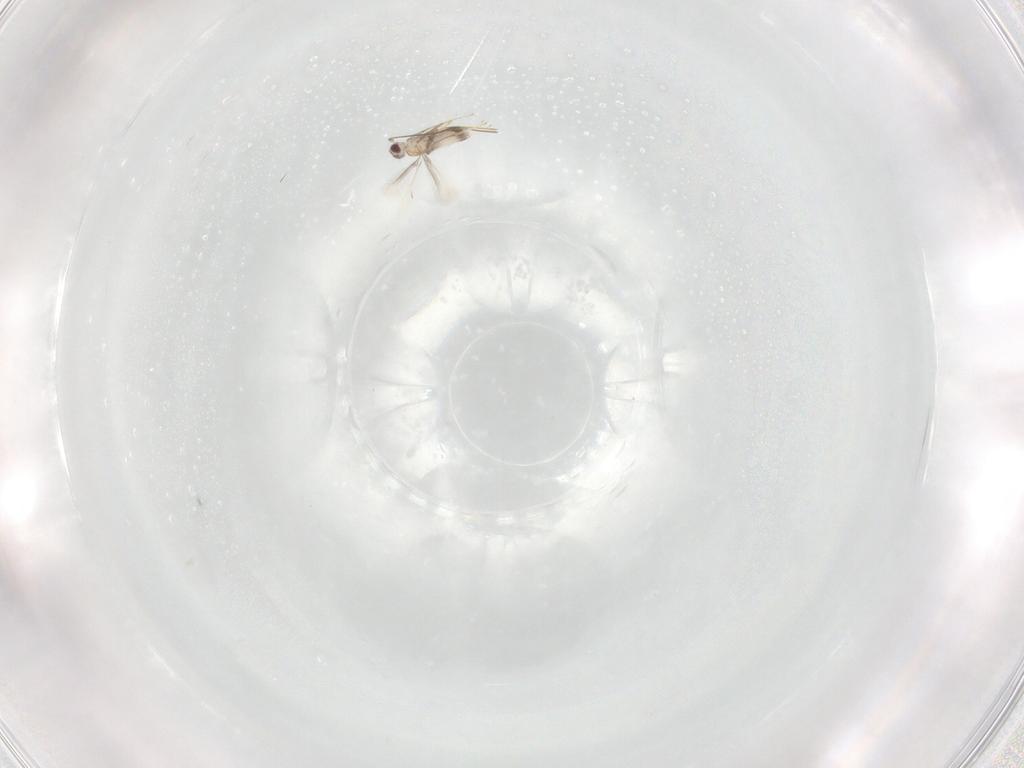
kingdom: Animalia
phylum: Arthropoda
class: Insecta
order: Hymenoptera
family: Mymaridae
